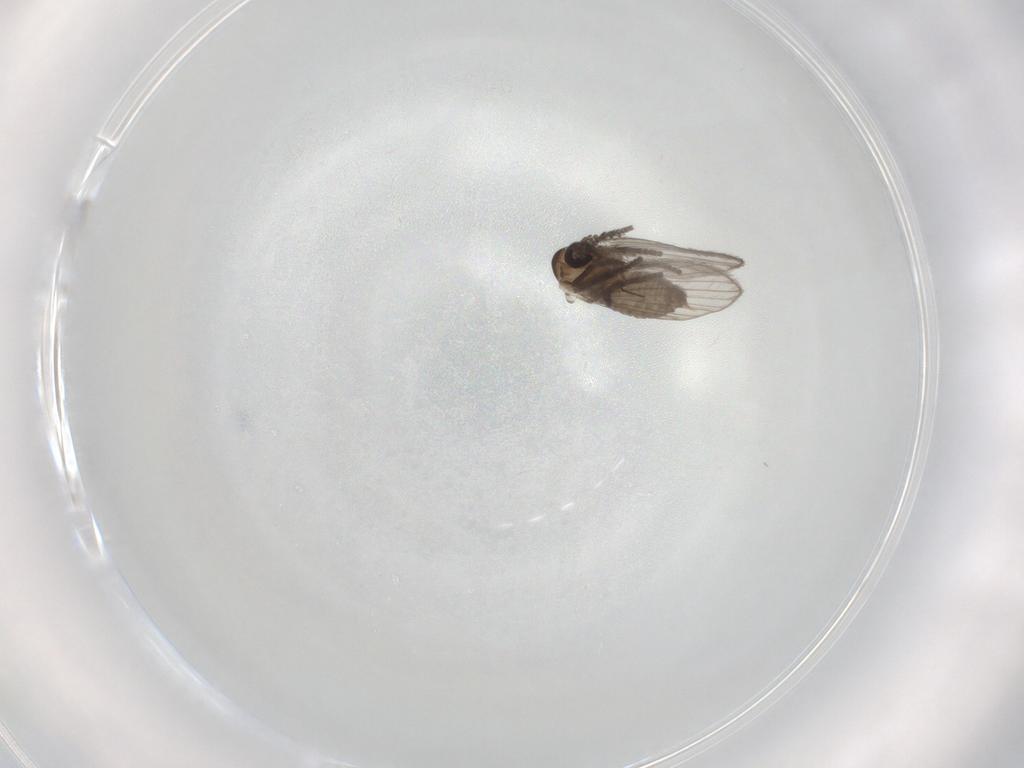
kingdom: Animalia
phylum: Arthropoda
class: Insecta
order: Diptera
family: Psychodidae
